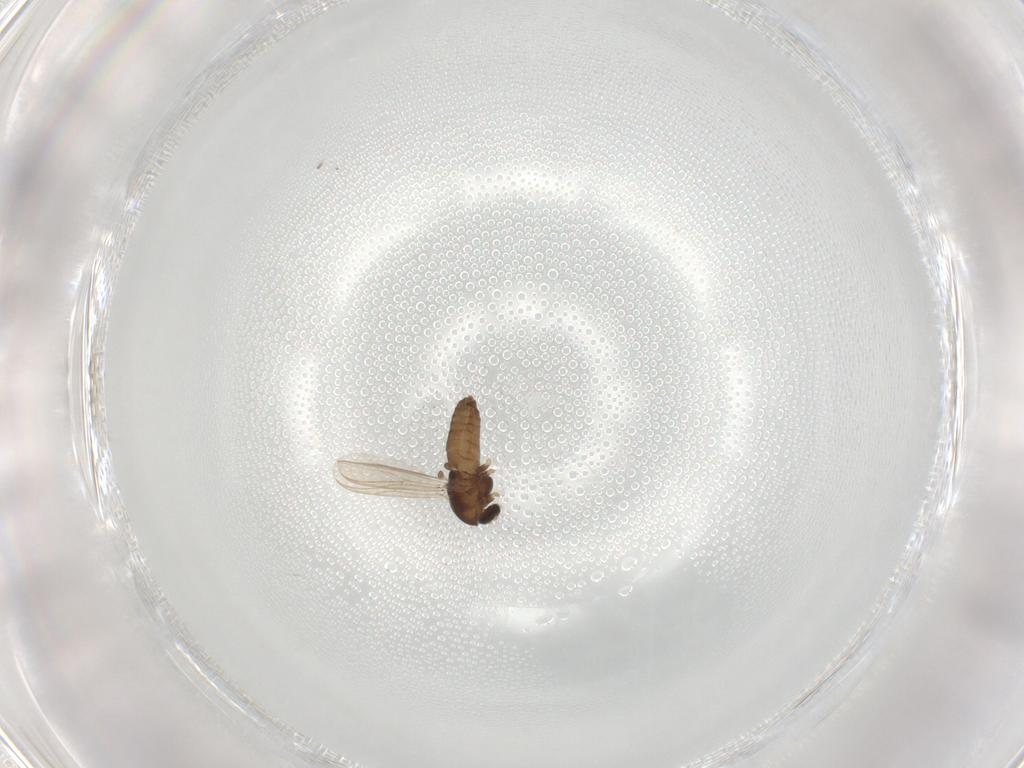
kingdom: Animalia
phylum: Arthropoda
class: Insecta
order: Diptera
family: Chironomidae
